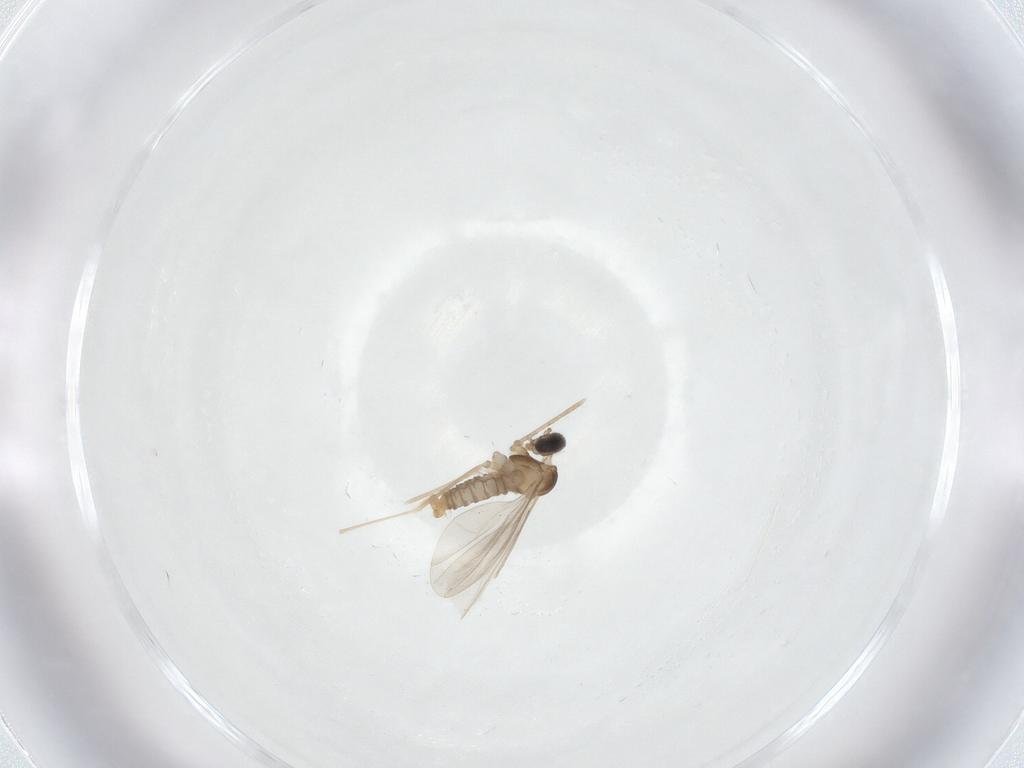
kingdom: Animalia
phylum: Arthropoda
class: Insecta
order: Diptera
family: Cecidomyiidae
